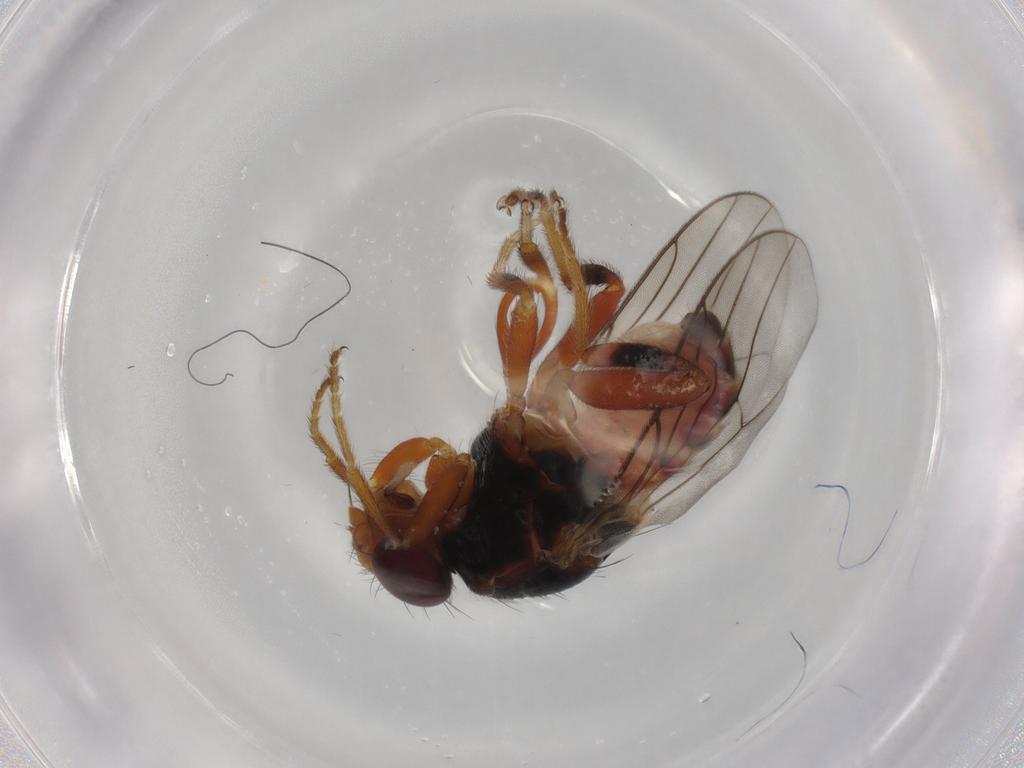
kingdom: Animalia
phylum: Arthropoda
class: Insecta
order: Diptera
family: Chloropidae
